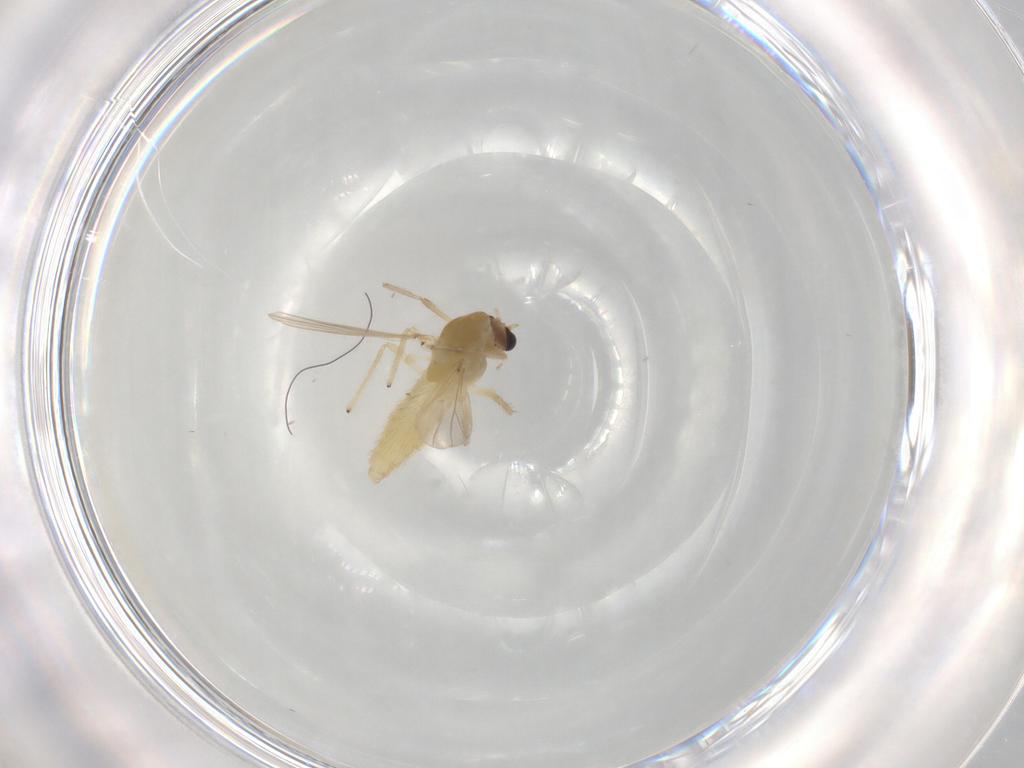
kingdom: Animalia
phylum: Arthropoda
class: Insecta
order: Diptera
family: Chironomidae
